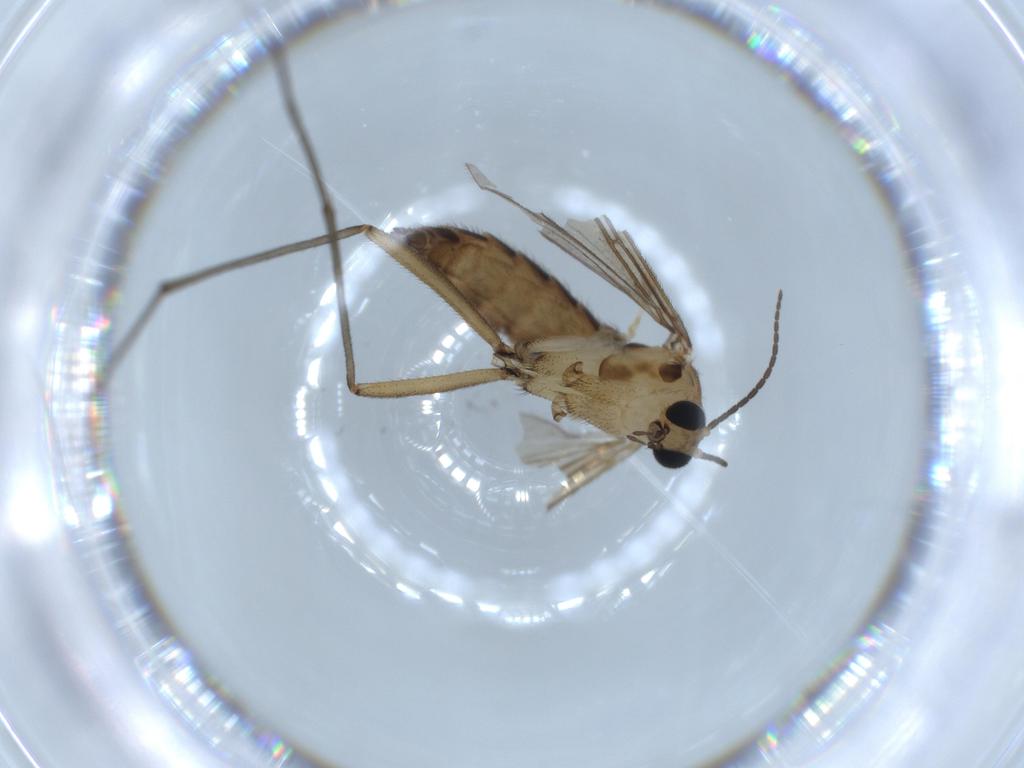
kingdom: Animalia
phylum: Arthropoda
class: Insecta
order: Diptera
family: Sciaridae
